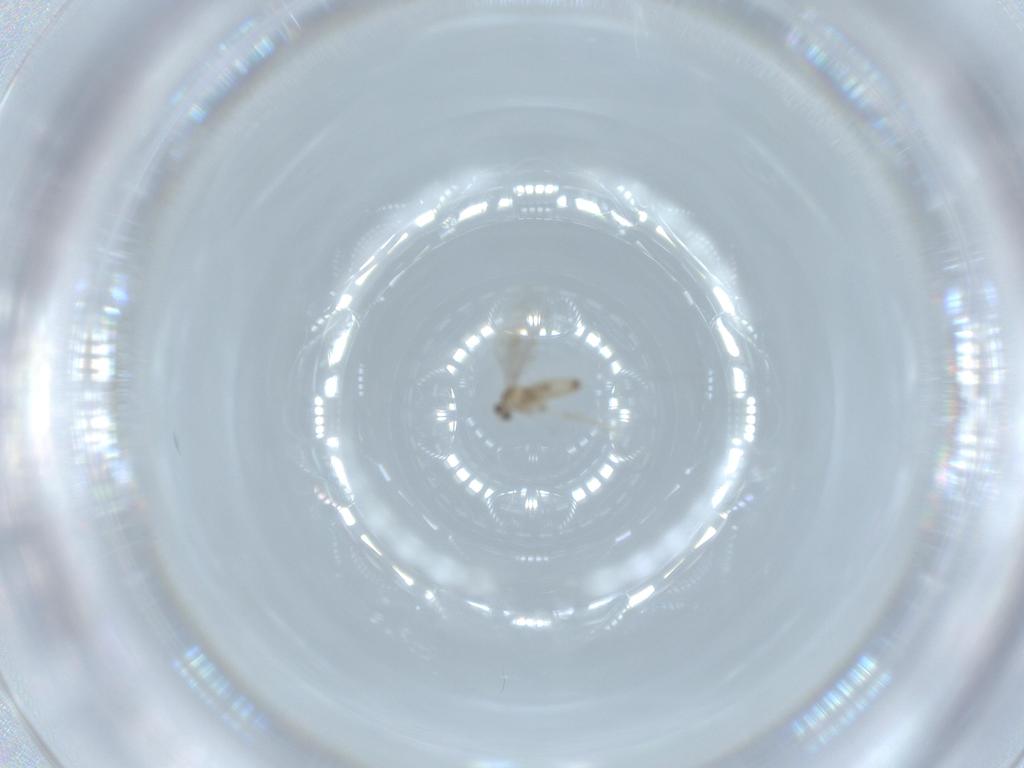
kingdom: Animalia
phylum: Arthropoda
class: Insecta
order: Diptera
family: Cecidomyiidae
